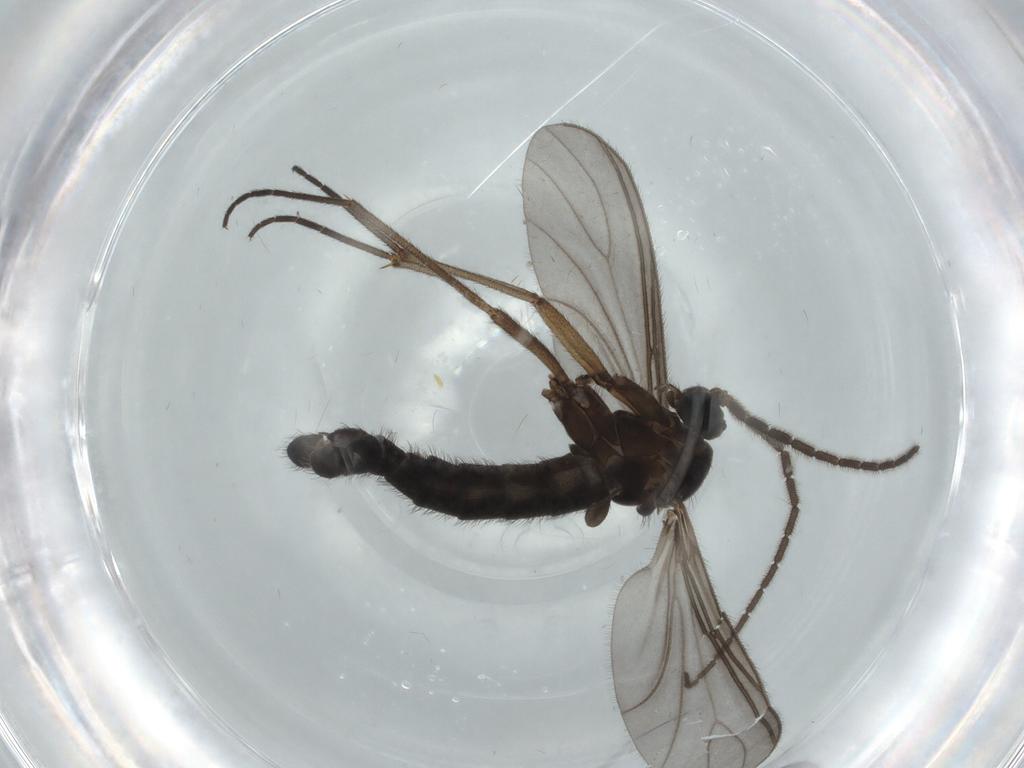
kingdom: Animalia
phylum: Arthropoda
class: Insecta
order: Diptera
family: Sciaridae
